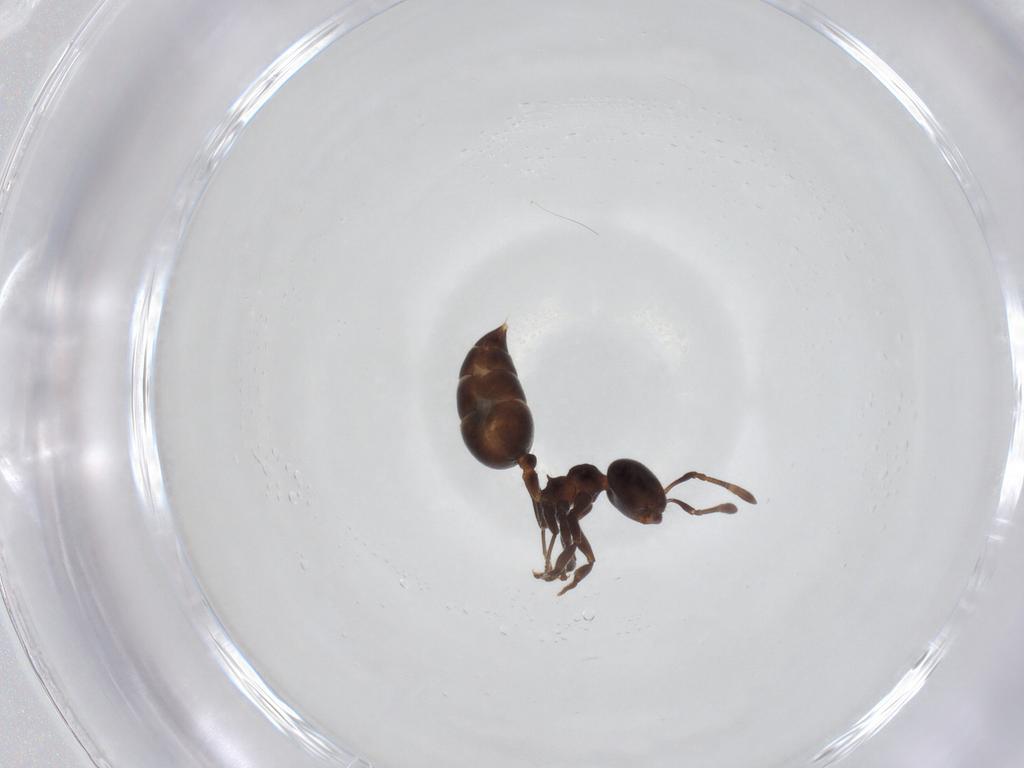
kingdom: Animalia
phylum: Arthropoda
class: Insecta
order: Hymenoptera
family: Formicidae
